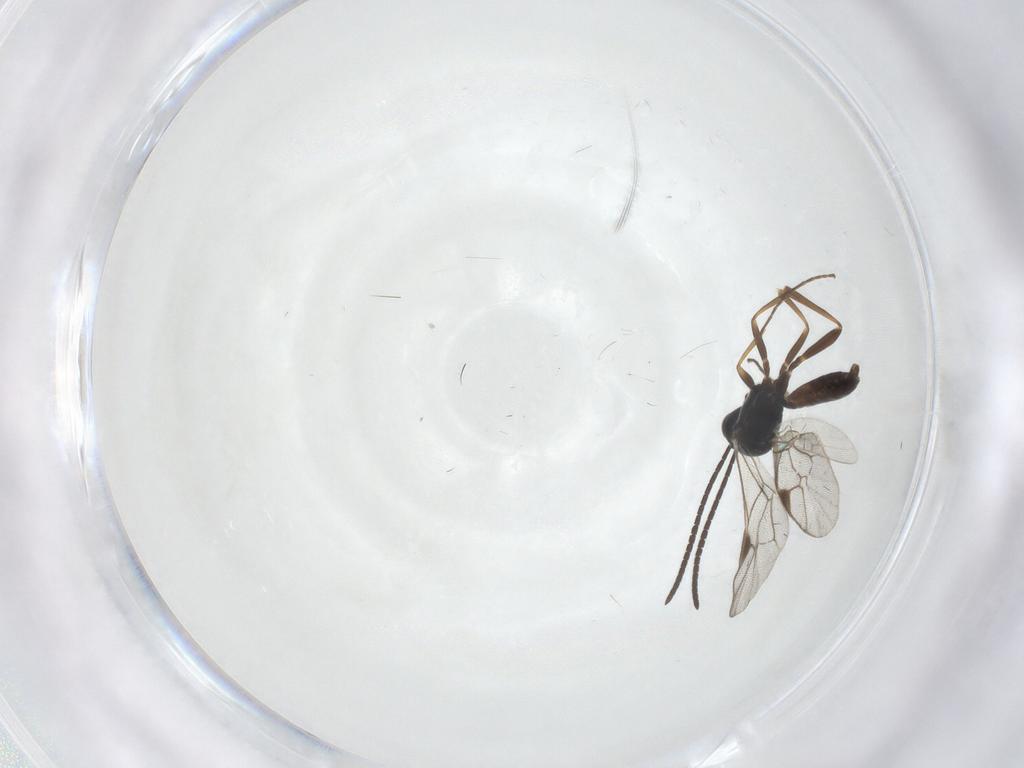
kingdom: Animalia
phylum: Arthropoda
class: Insecta
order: Hymenoptera
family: Ichneumonidae
